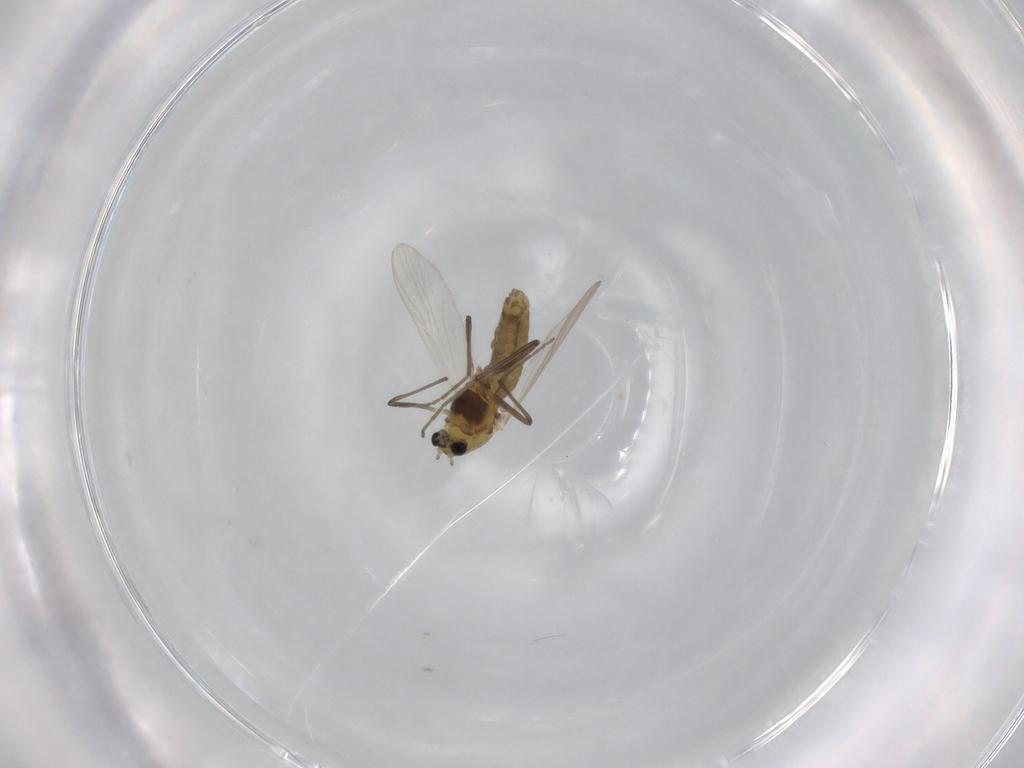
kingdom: Animalia
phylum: Arthropoda
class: Insecta
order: Diptera
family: Chironomidae
